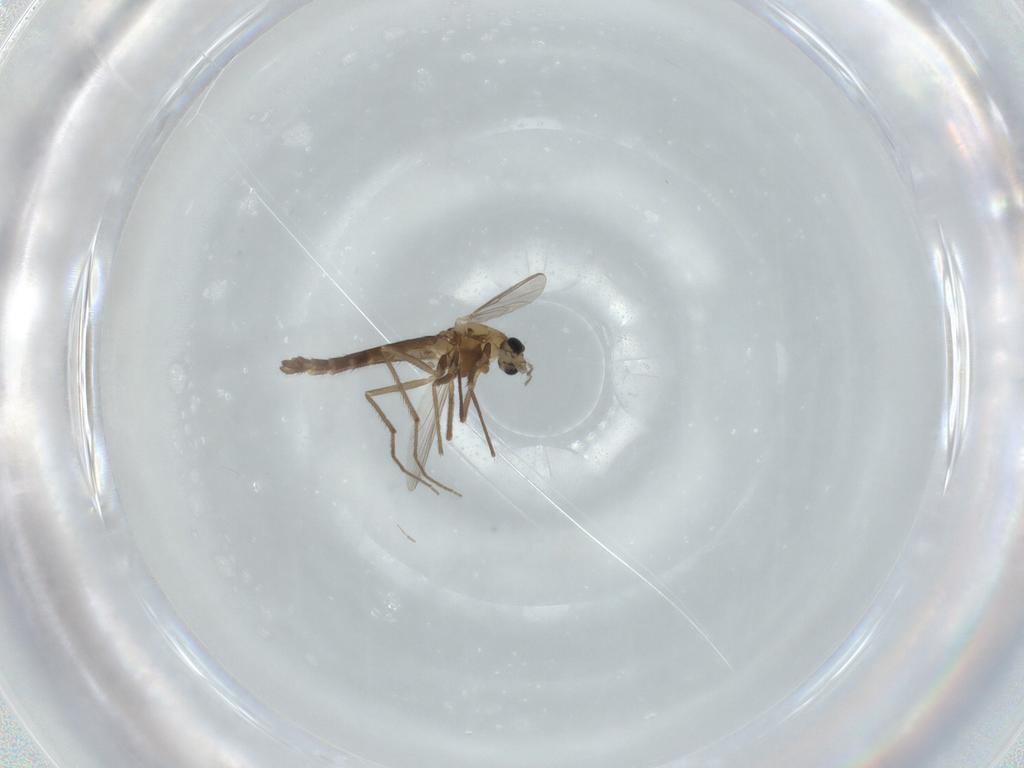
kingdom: Animalia
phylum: Arthropoda
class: Insecta
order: Diptera
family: Chironomidae
